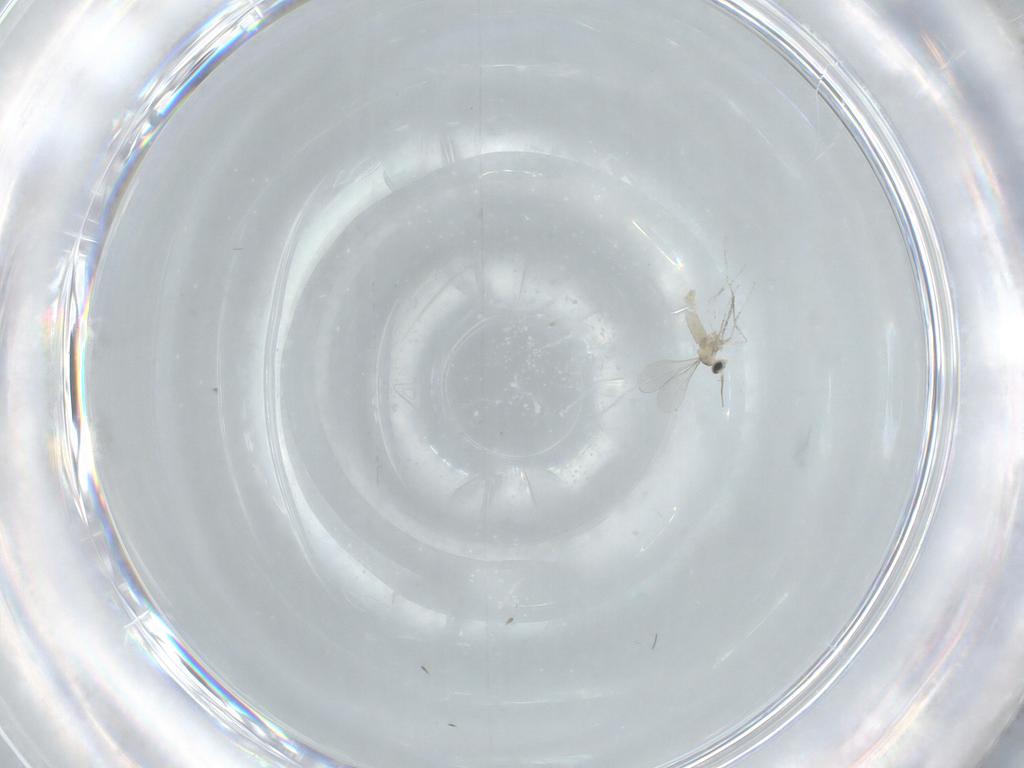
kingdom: Animalia
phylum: Arthropoda
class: Insecta
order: Diptera
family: Cecidomyiidae
